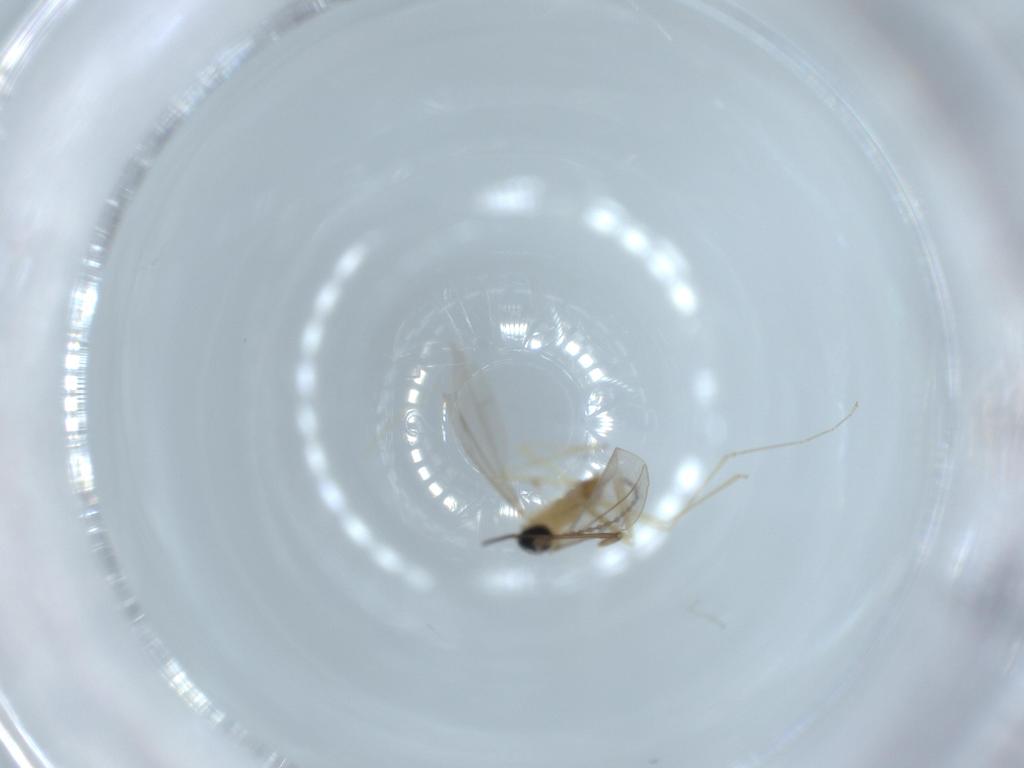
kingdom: Animalia
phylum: Arthropoda
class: Insecta
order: Diptera
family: Cecidomyiidae
